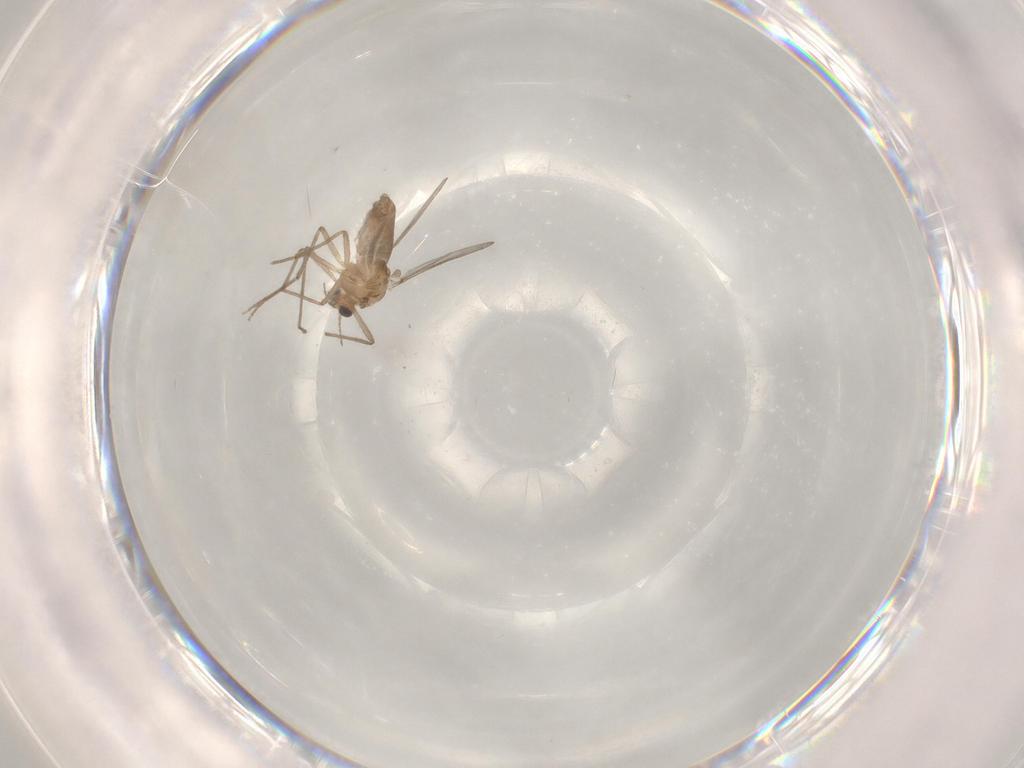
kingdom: Animalia
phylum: Arthropoda
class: Insecta
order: Diptera
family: Chironomidae
